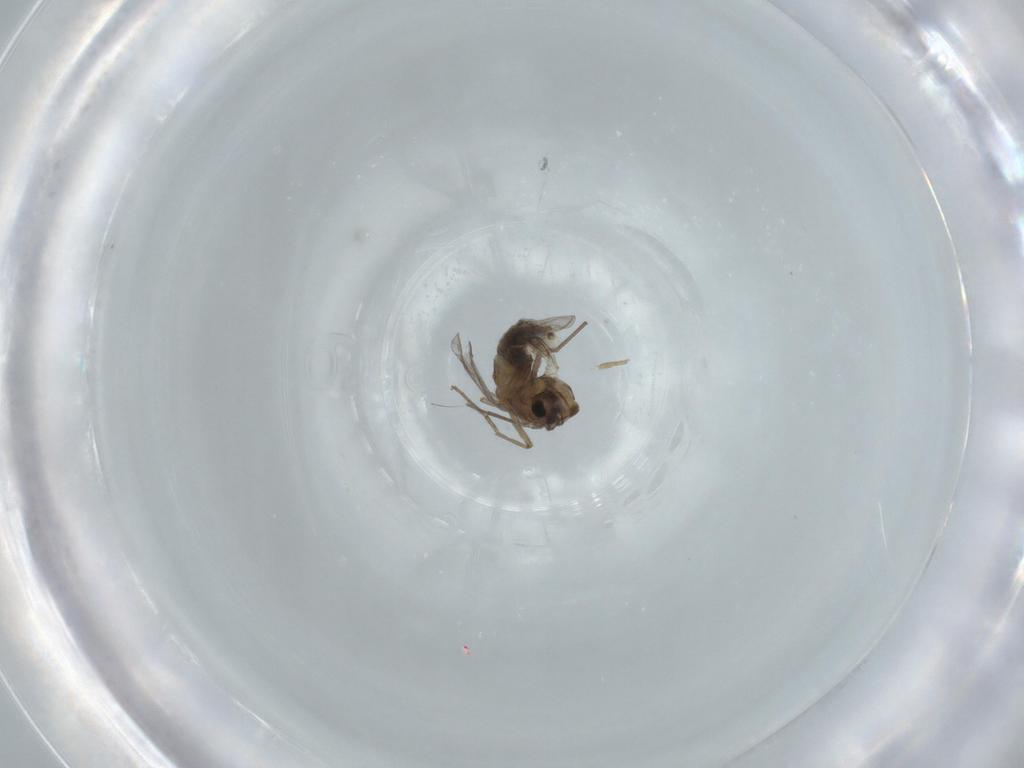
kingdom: Animalia
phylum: Arthropoda
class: Insecta
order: Diptera
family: Chironomidae
